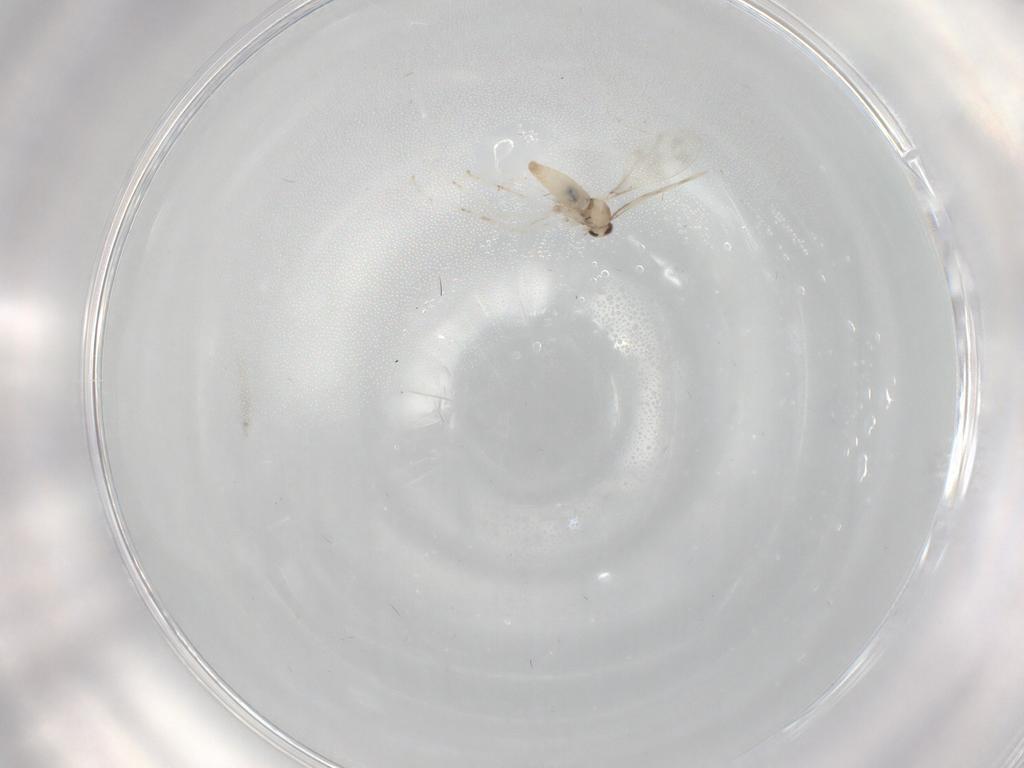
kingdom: Animalia
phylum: Arthropoda
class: Insecta
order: Diptera
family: Cecidomyiidae
